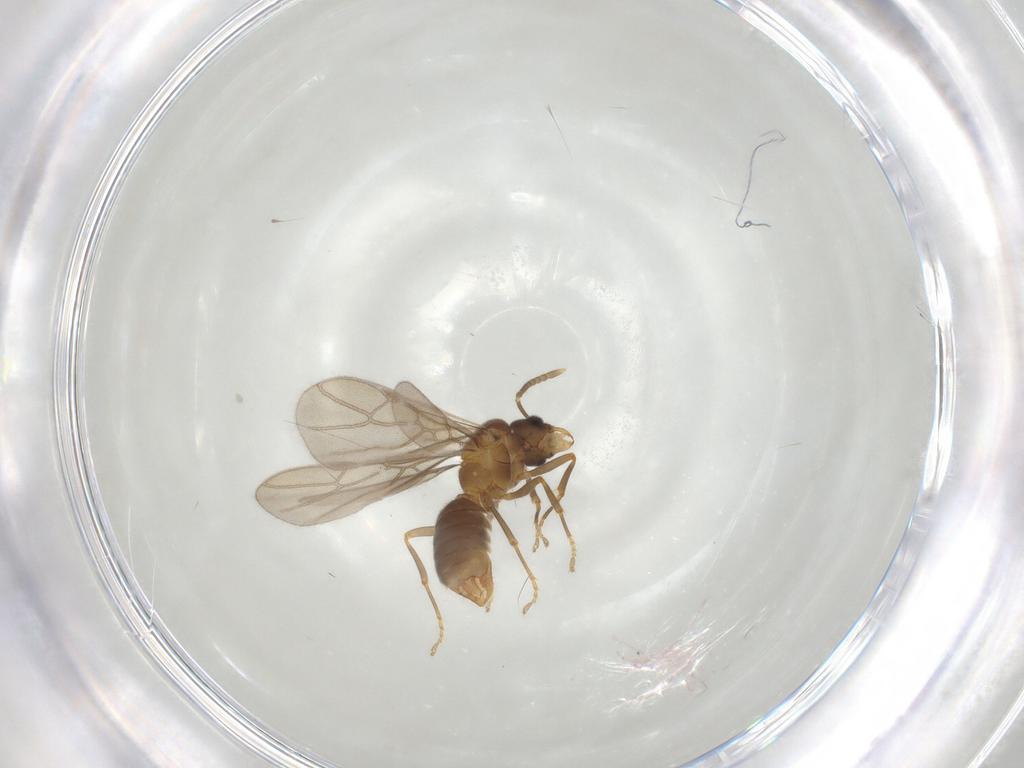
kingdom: Animalia
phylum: Arthropoda
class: Insecta
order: Hymenoptera
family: Formicidae
